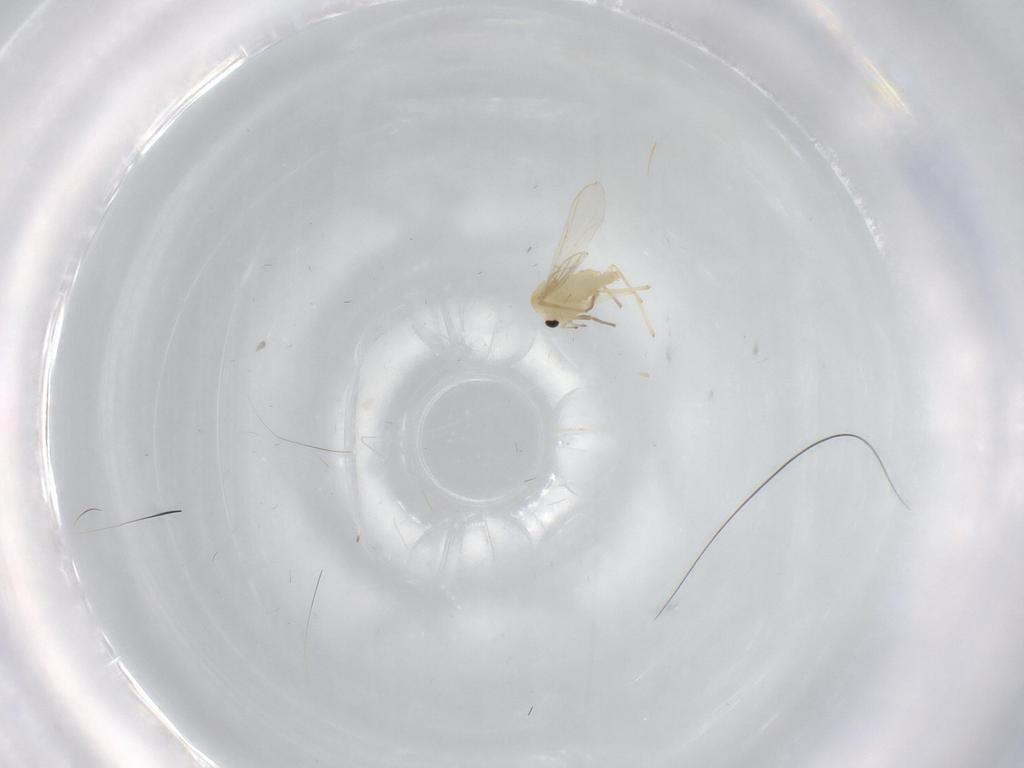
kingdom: Animalia
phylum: Arthropoda
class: Insecta
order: Diptera
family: Chironomidae
